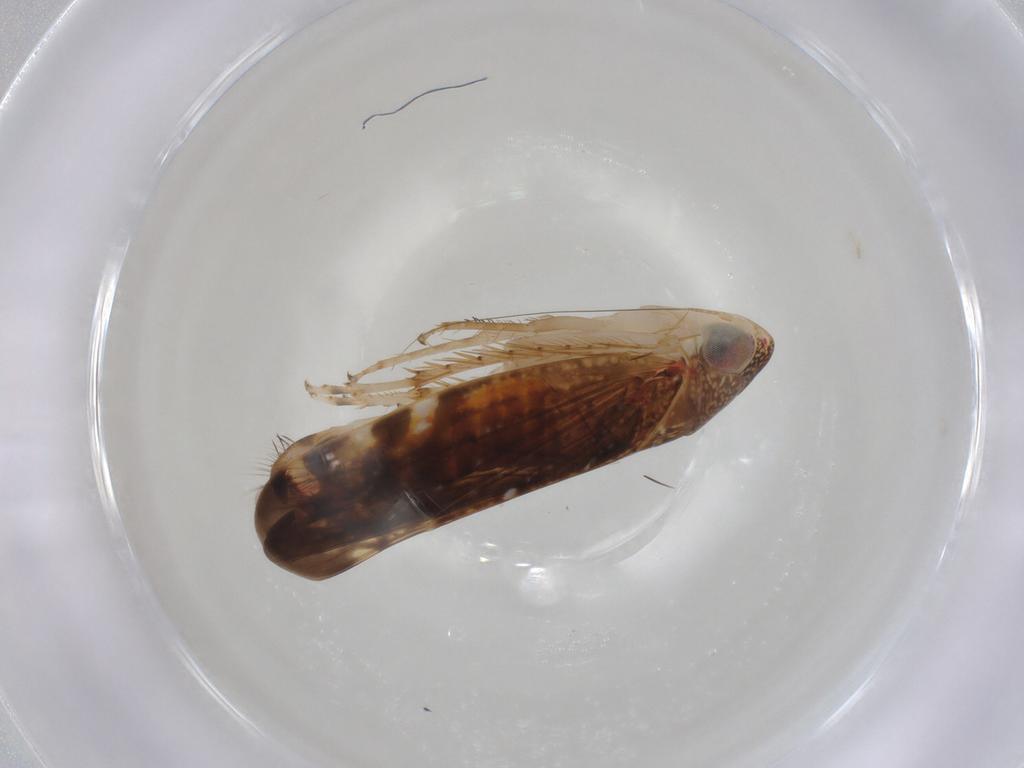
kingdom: Animalia
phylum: Arthropoda
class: Insecta
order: Hemiptera
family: Cicadellidae
